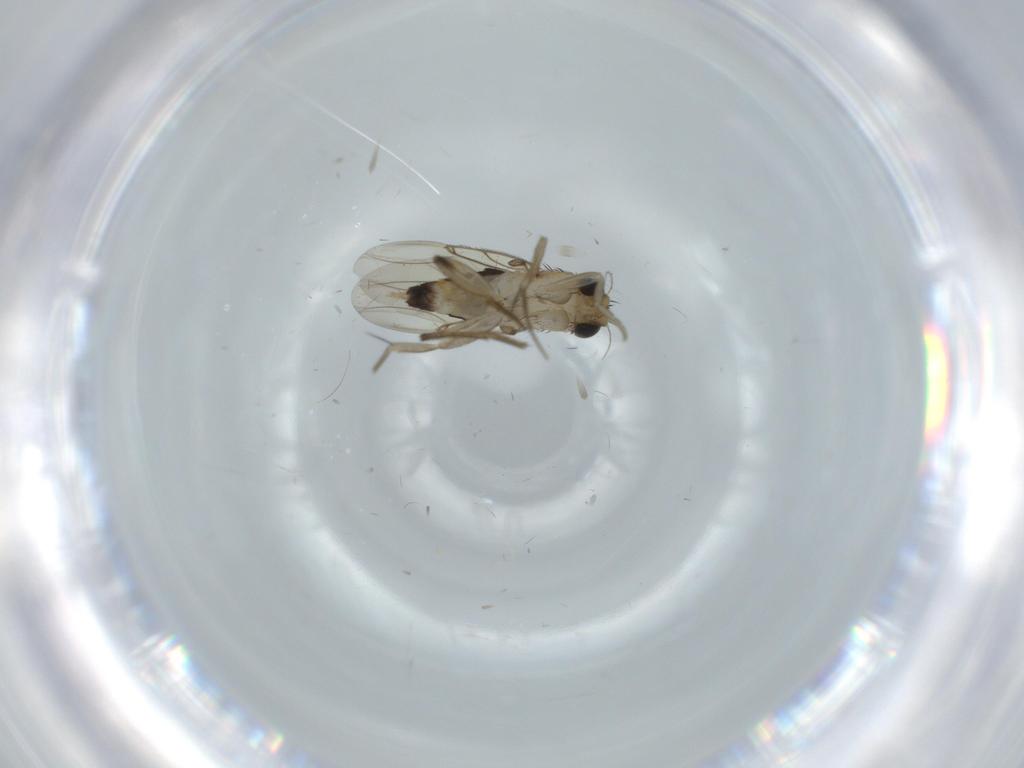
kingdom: Animalia
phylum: Arthropoda
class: Insecta
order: Diptera
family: Phoridae
